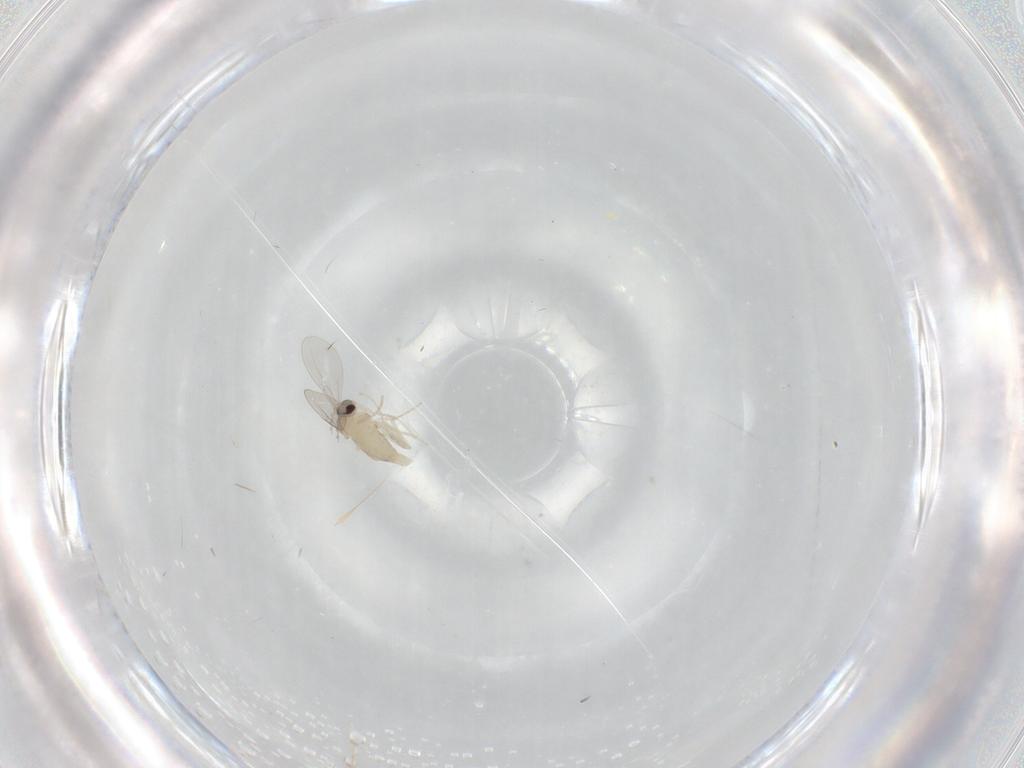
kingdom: Animalia
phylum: Arthropoda
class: Insecta
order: Diptera
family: Cecidomyiidae
